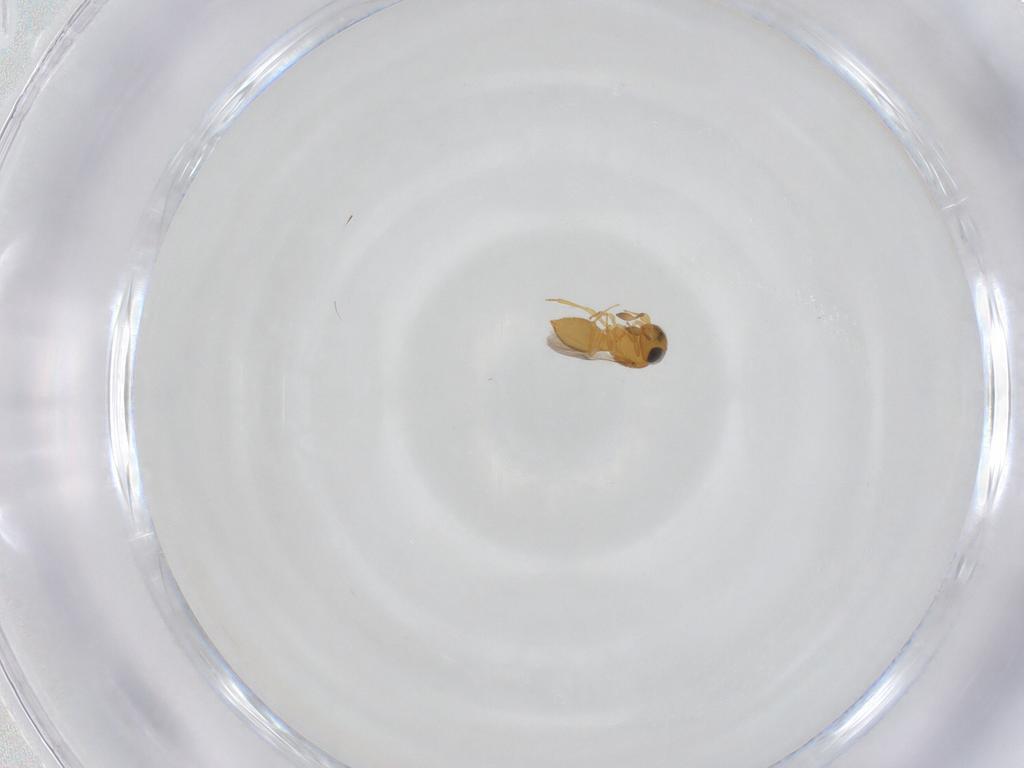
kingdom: Animalia
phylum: Arthropoda
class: Insecta
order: Hymenoptera
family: Scelionidae
